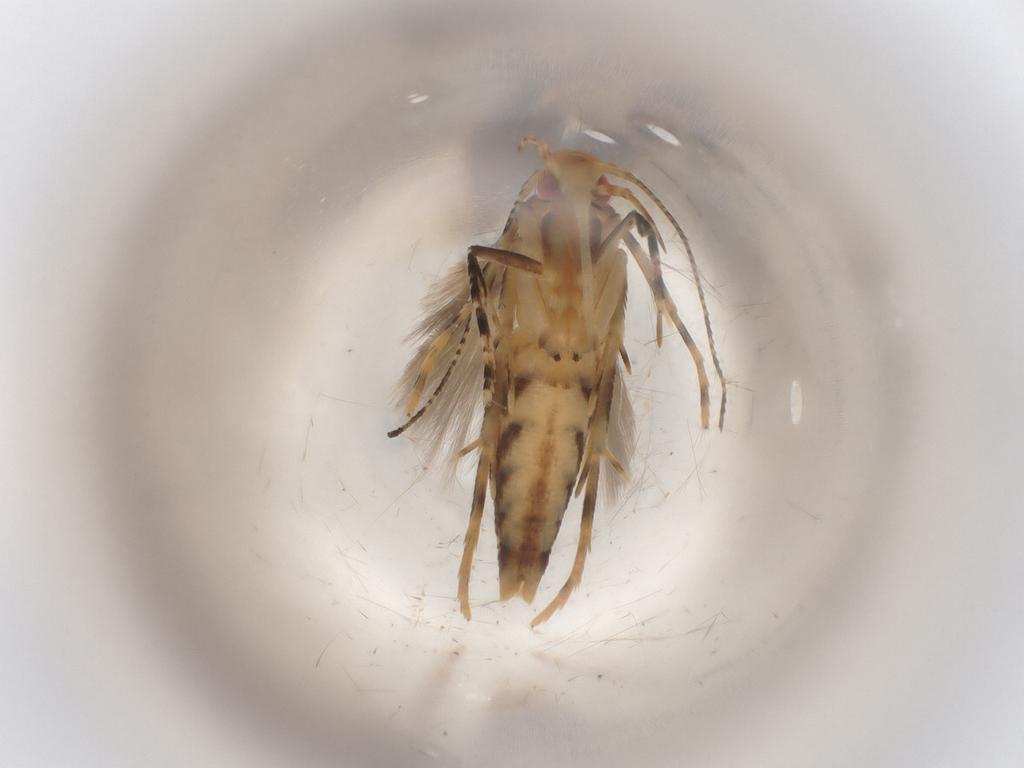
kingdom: Animalia
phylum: Arthropoda
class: Insecta
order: Lepidoptera
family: Cosmopterigidae
